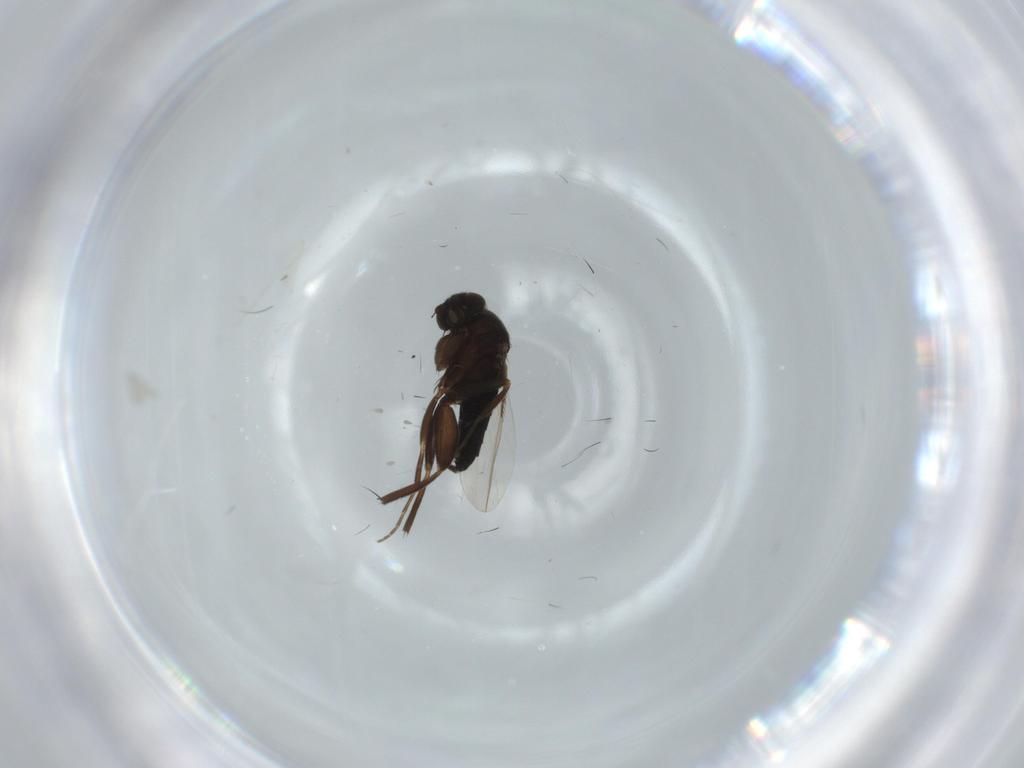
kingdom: Animalia
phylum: Arthropoda
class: Insecta
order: Diptera
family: Phoridae
